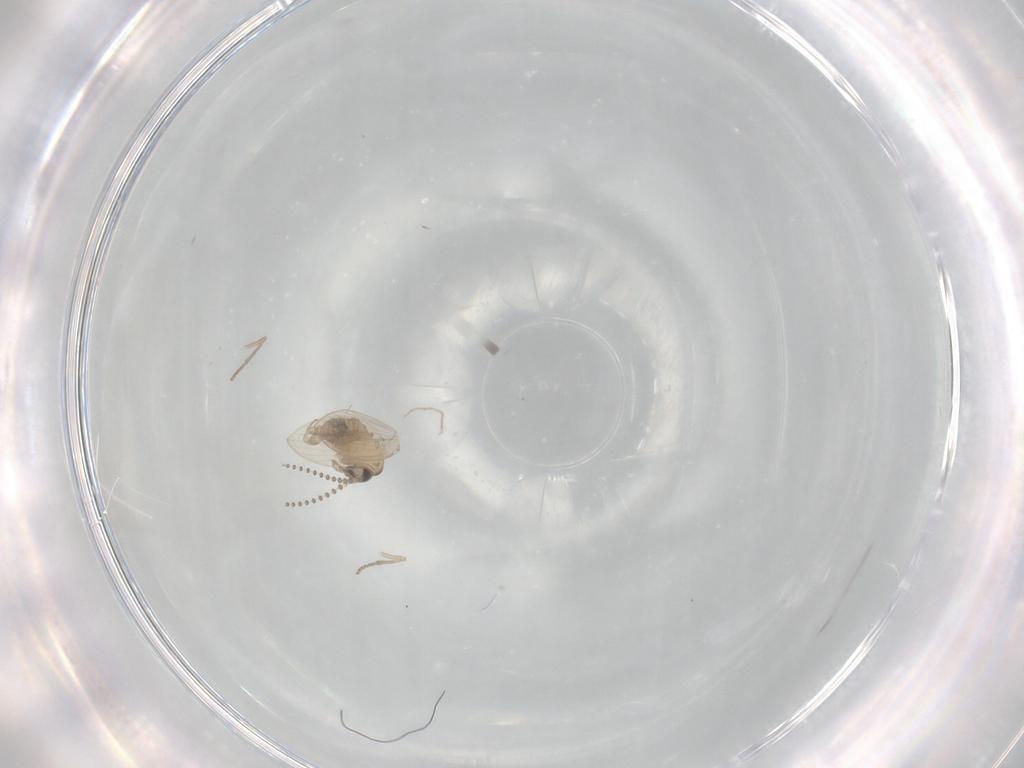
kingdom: Animalia
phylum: Arthropoda
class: Insecta
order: Diptera
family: Psychodidae
